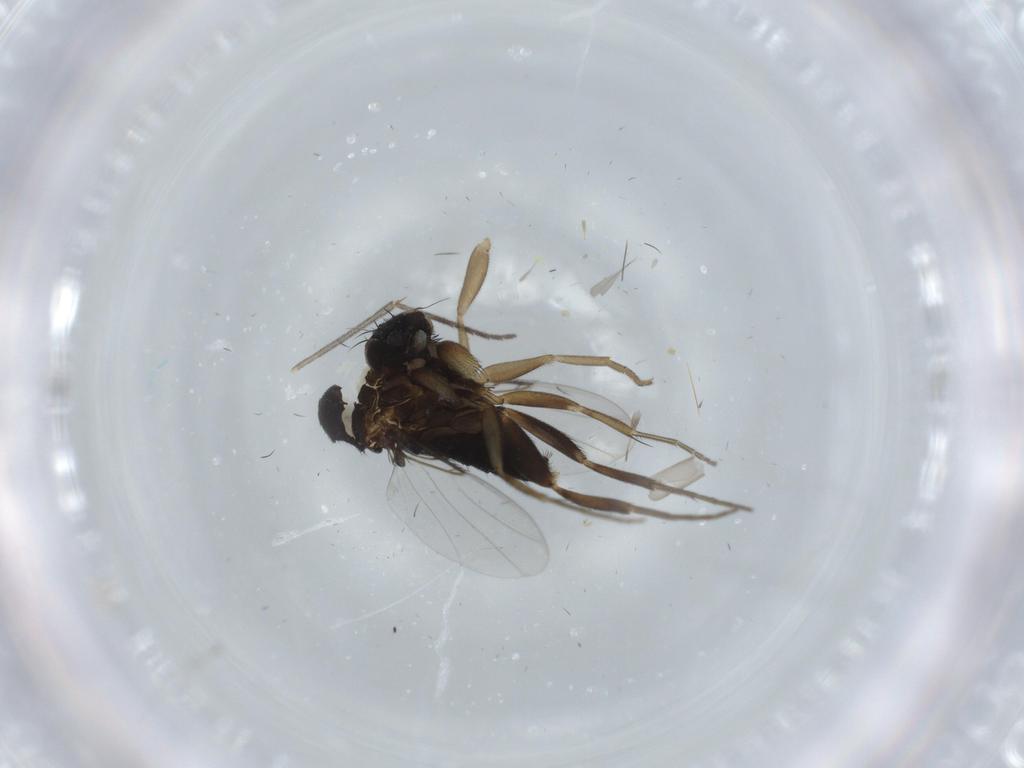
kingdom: Animalia
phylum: Arthropoda
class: Insecta
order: Diptera
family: Phoridae
